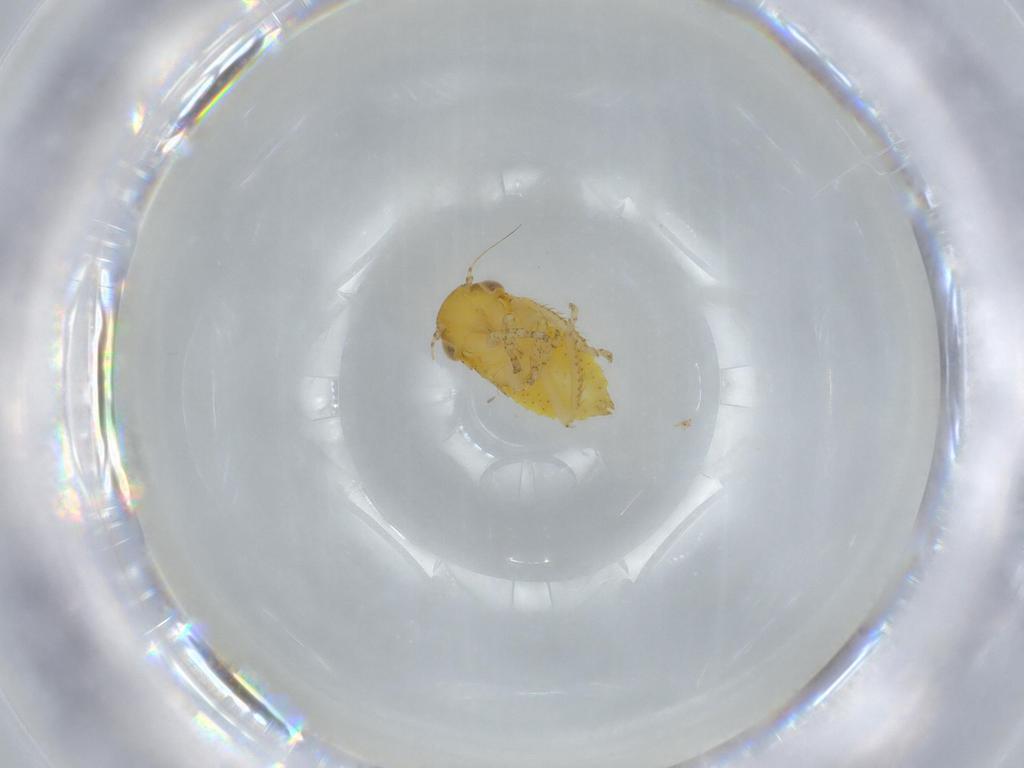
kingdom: Animalia
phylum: Arthropoda
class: Insecta
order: Hemiptera
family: Cicadellidae
